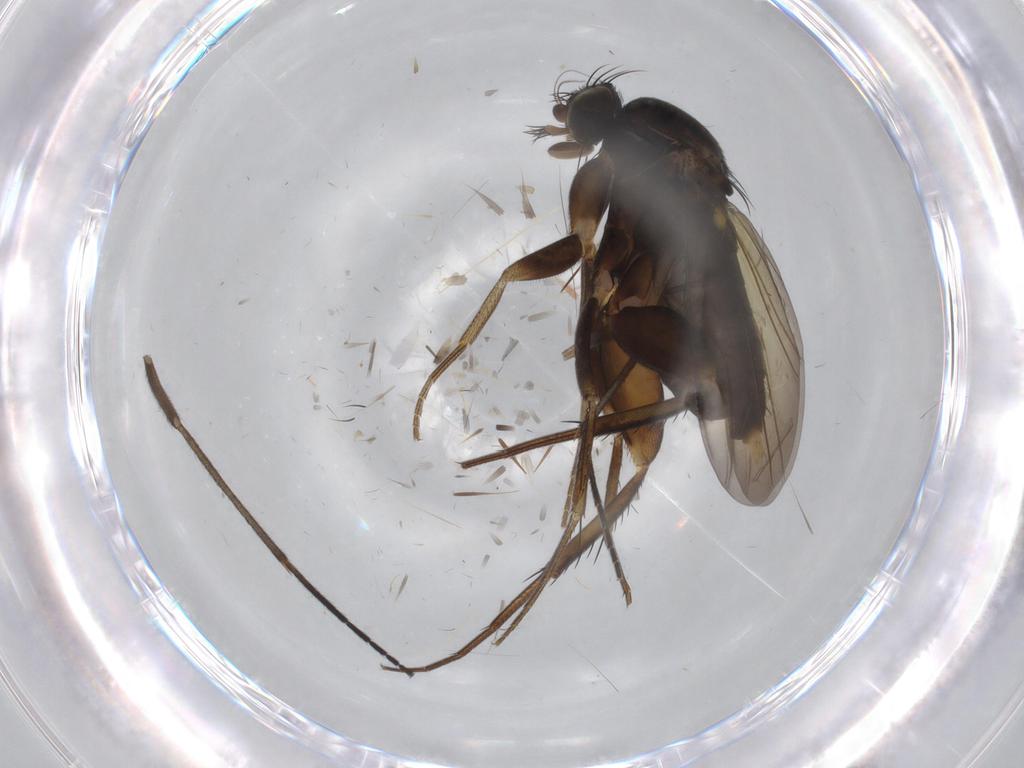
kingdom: Animalia
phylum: Arthropoda
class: Insecta
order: Diptera
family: Phoridae
